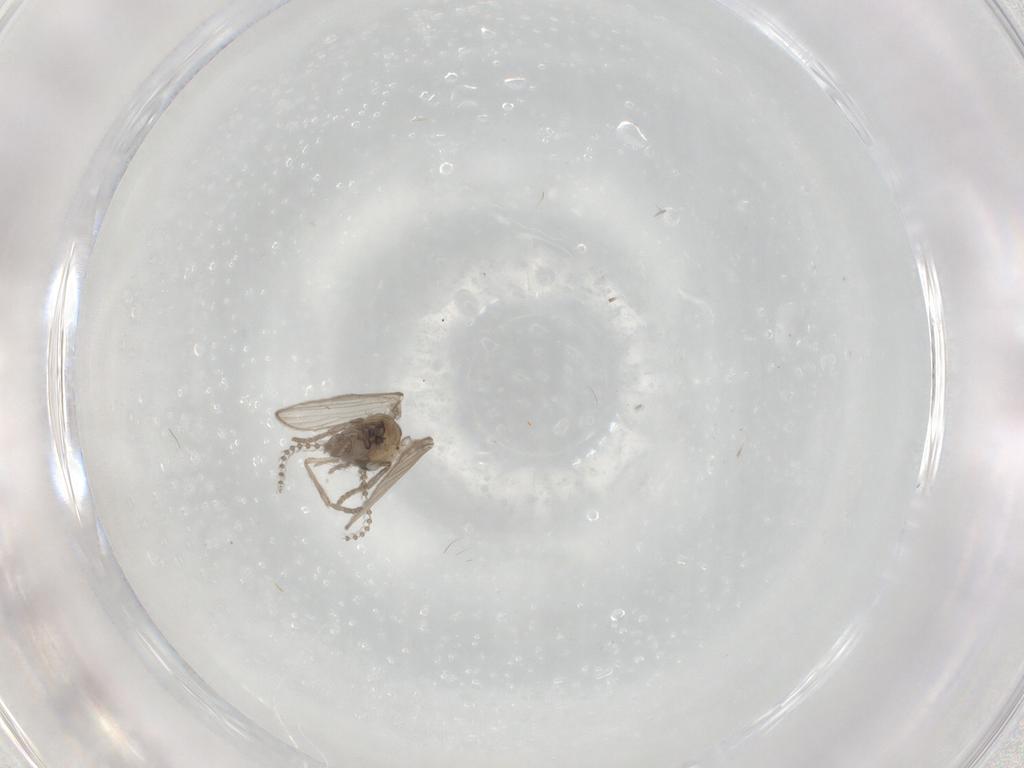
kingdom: Animalia
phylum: Arthropoda
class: Insecta
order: Diptera
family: Psychodidae
